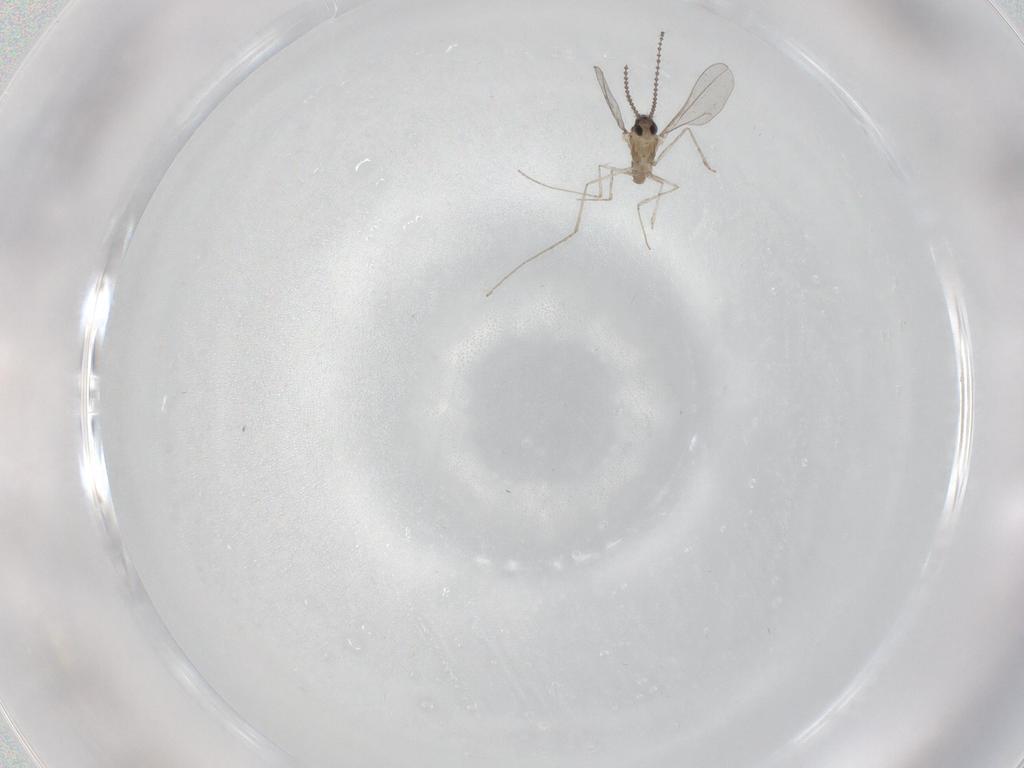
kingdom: Animalia
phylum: Arthropoda
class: Insecta
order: Diptera
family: Cecidomyiidae
